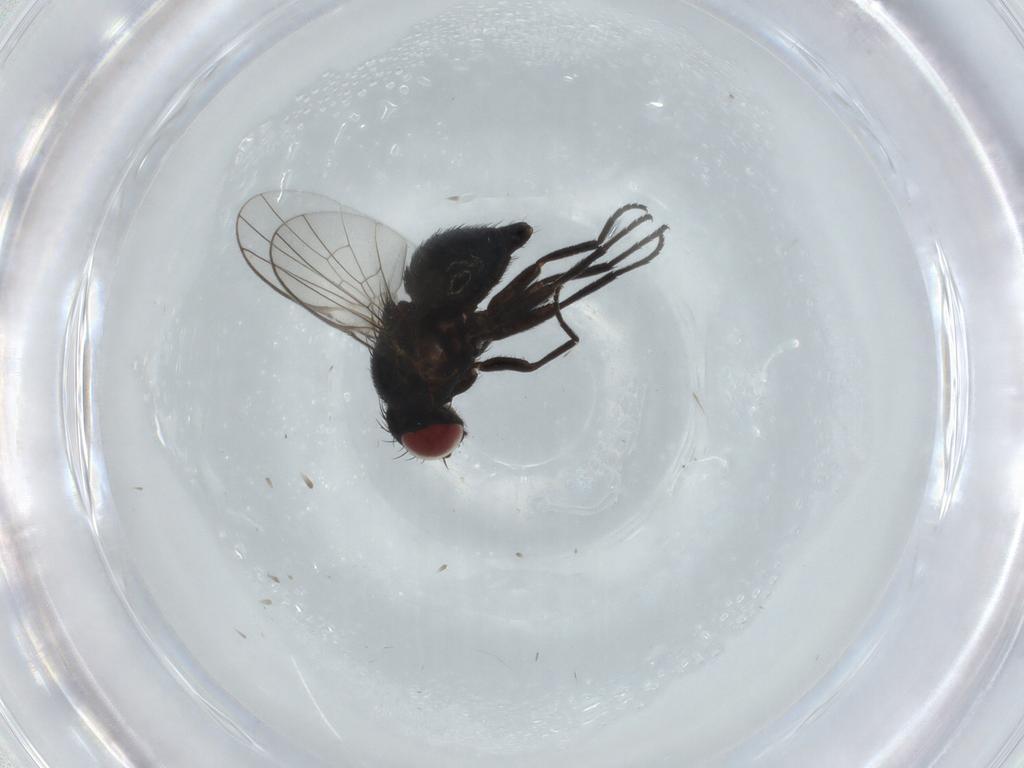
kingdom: Animalia
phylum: Arthropoda
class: Insecta
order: Diptera
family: Cecidomyiidae
